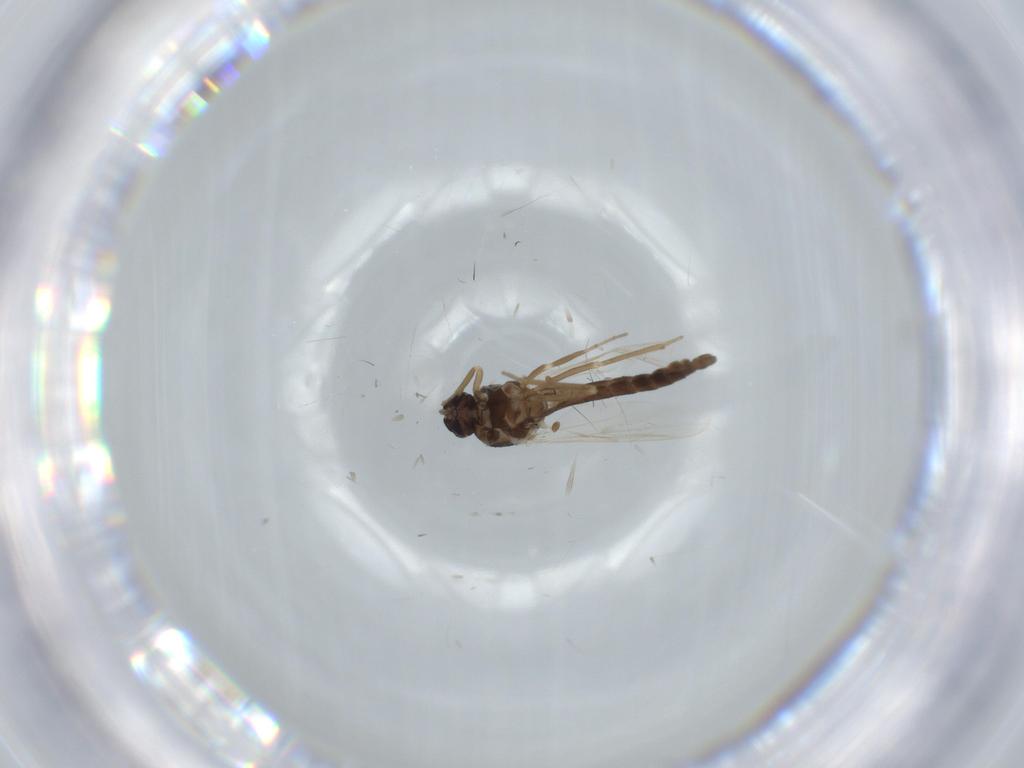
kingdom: Animalia
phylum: Arthropoda
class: Insecta
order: Diptera
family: Ceratopogonidae
